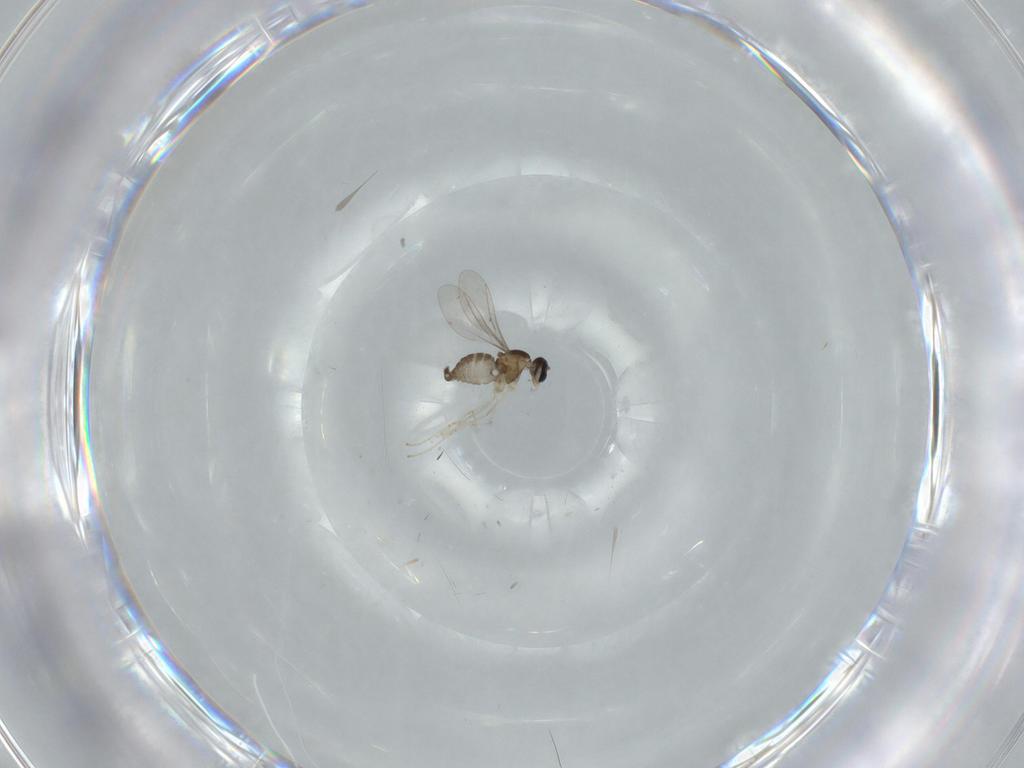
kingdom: Animalia
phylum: Arthropoda
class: Insecta
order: Diptera
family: Cecidomyiidae
